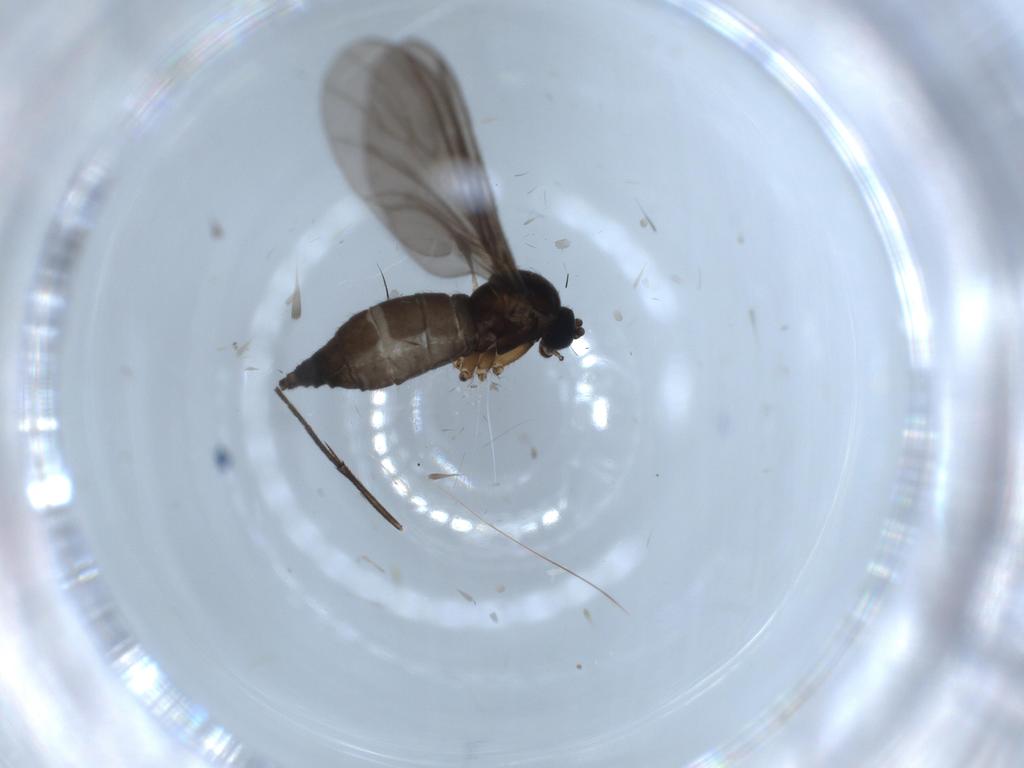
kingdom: Animalia
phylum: Arthropoda
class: Insecta
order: Diptera
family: Sciaridae
